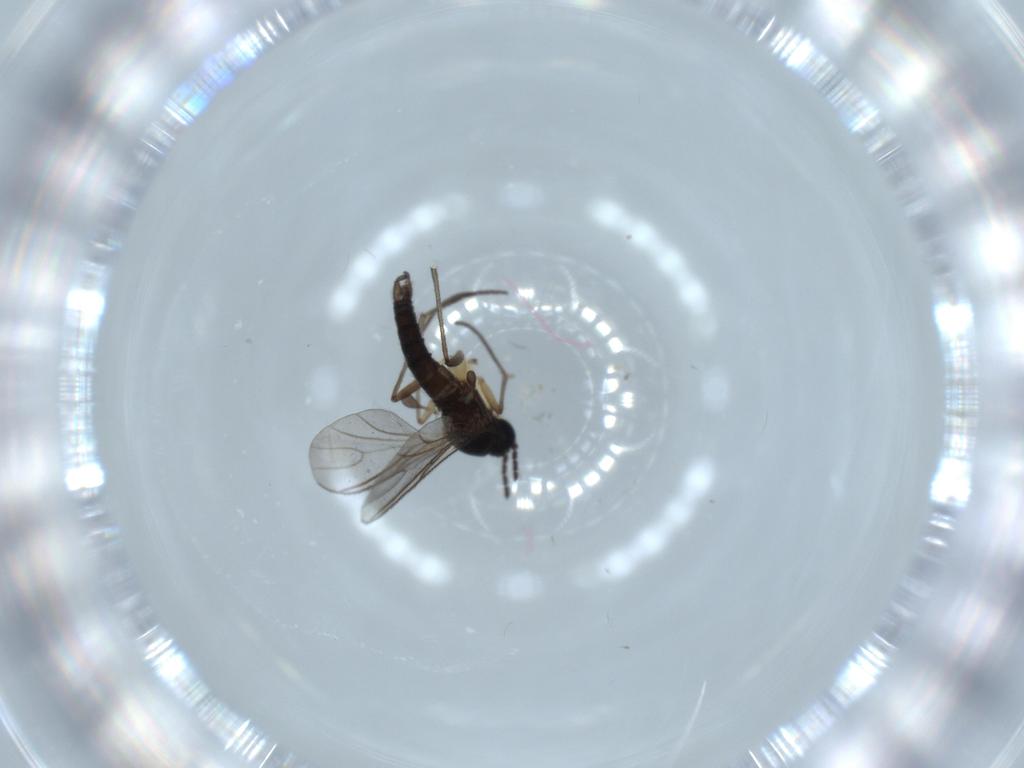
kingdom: Animalia
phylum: Arthropoda
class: Insecta
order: Diptera
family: Sciaridae
